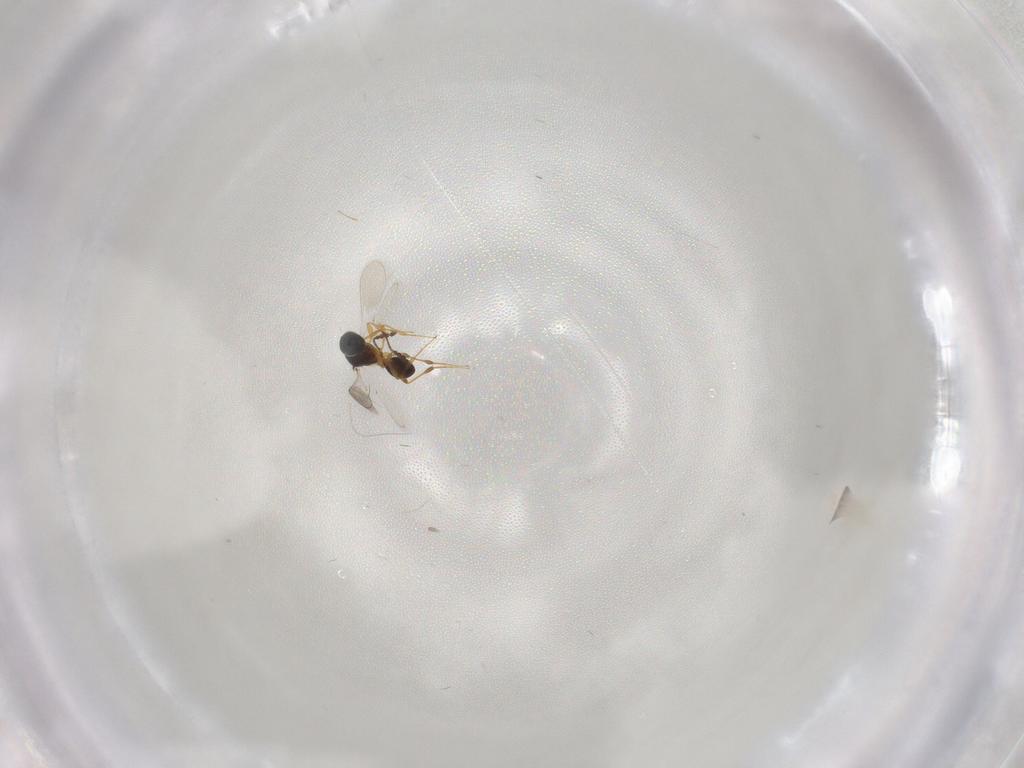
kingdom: Animalia
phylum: Arthropoda
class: Insecta
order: Hymenoptera
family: Platygastridae
